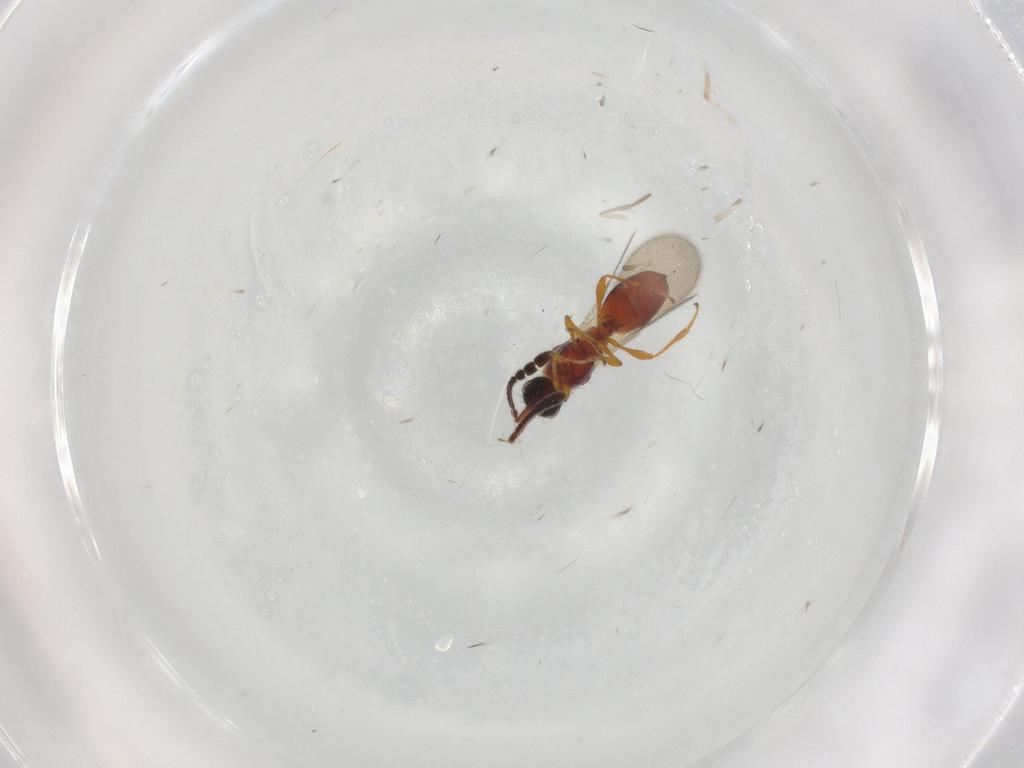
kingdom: Animalia
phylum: Arthropoda
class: Insecta
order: Hymenoptera
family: Diapriidae
